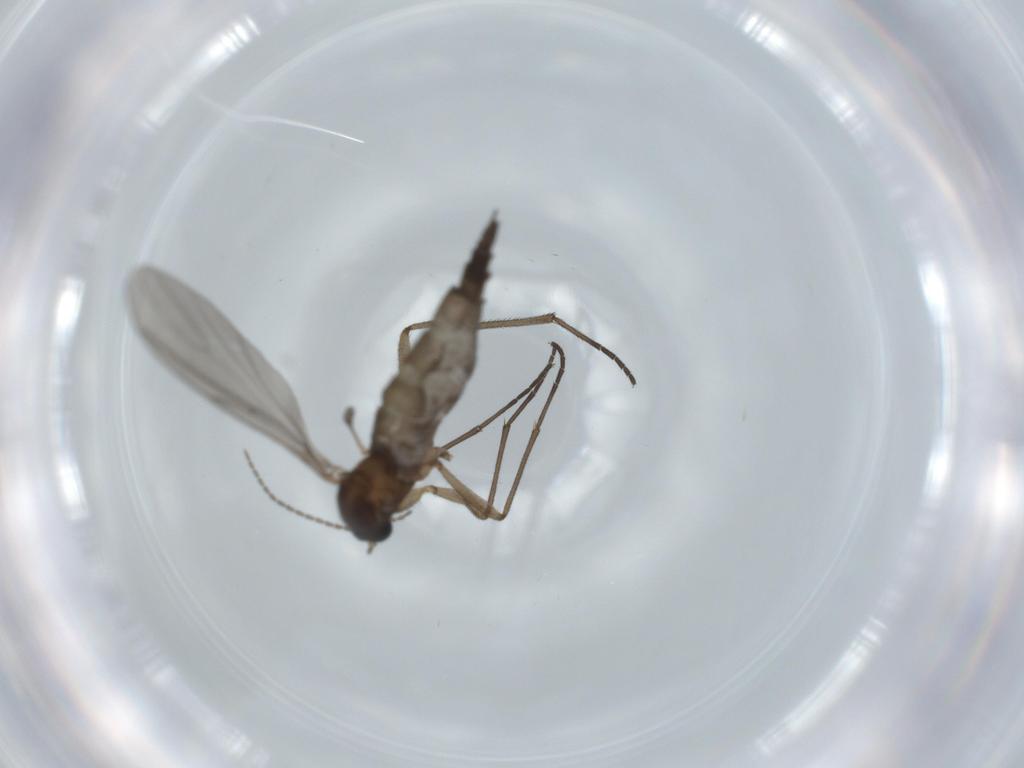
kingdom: Animalia
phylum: Arthropoda
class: Insecta
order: Diptera
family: Sciaridae
